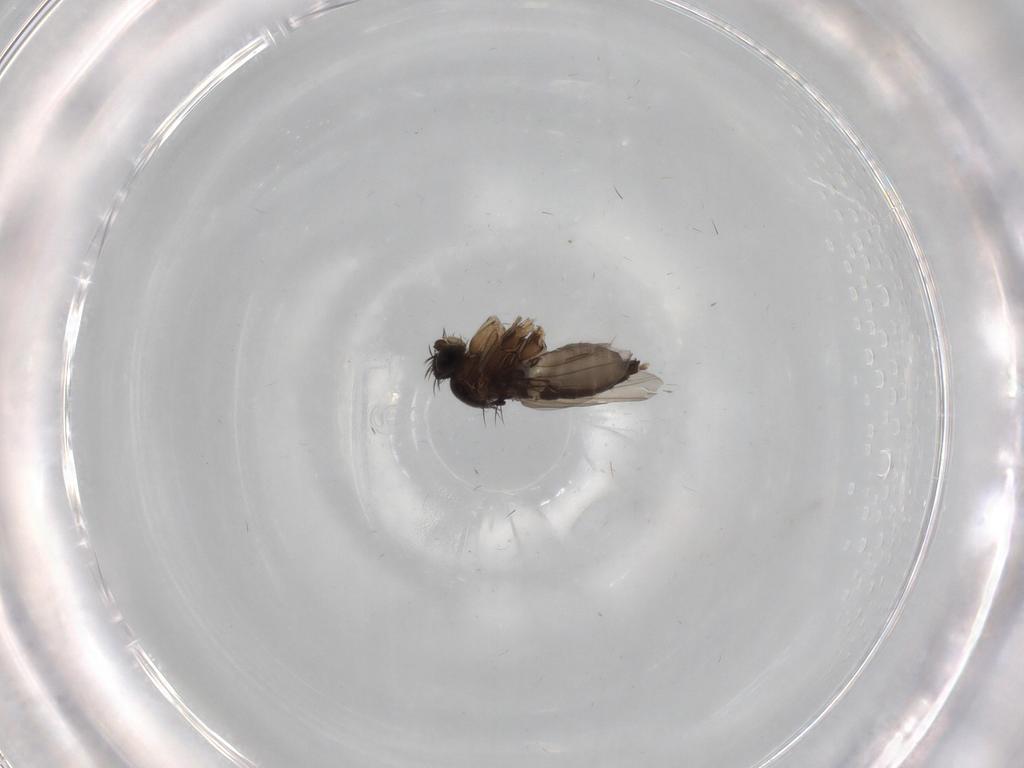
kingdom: Animalia
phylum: Arthropoda
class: Insecta
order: Diptera
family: Phoridae
